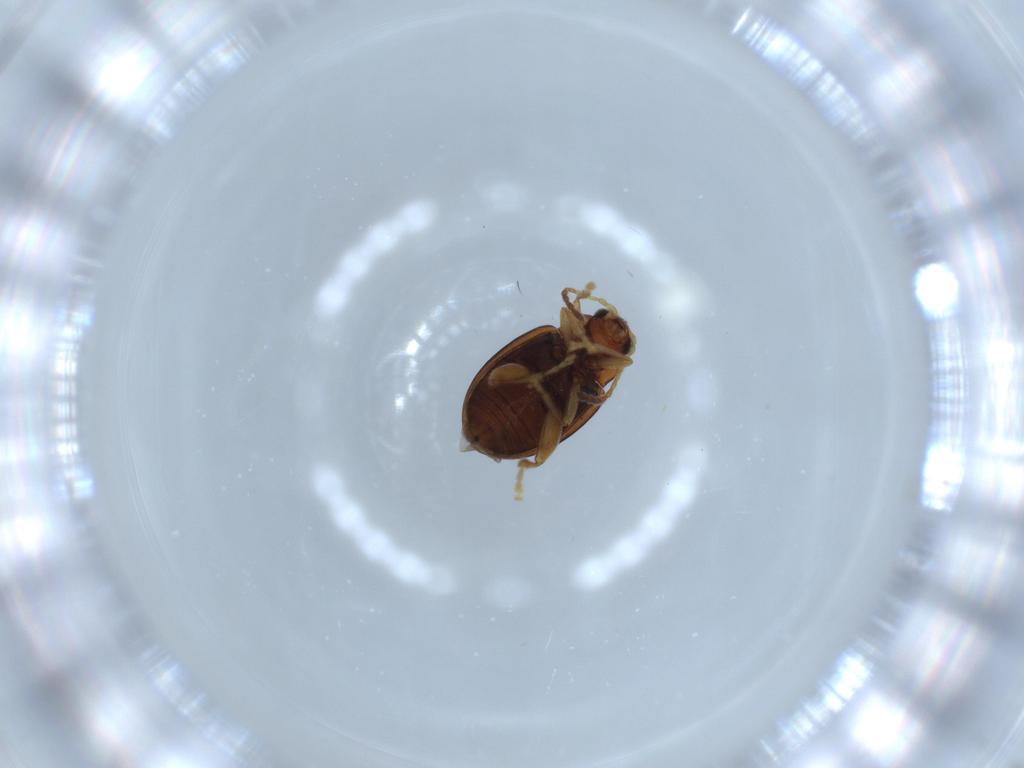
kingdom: Animalia
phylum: Arthropoda
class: Insecta
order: Coleoptera
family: Chrysomelidae
